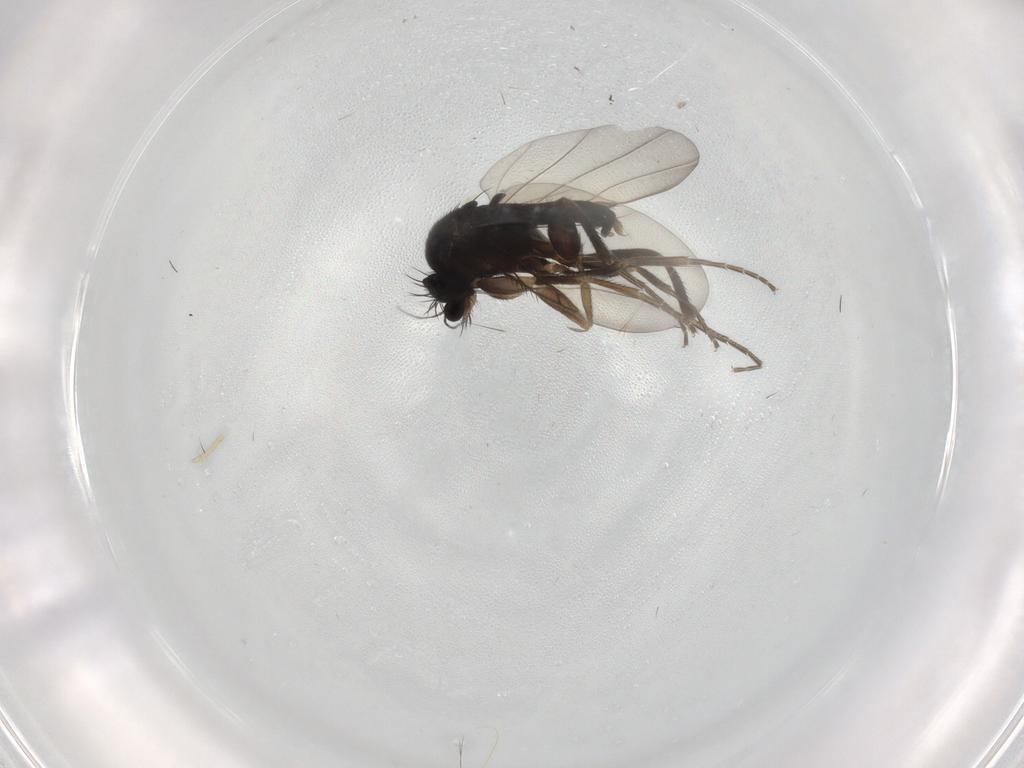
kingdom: Animalia
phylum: Arthropoda
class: Insecta
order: Diptera
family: Phoridae
